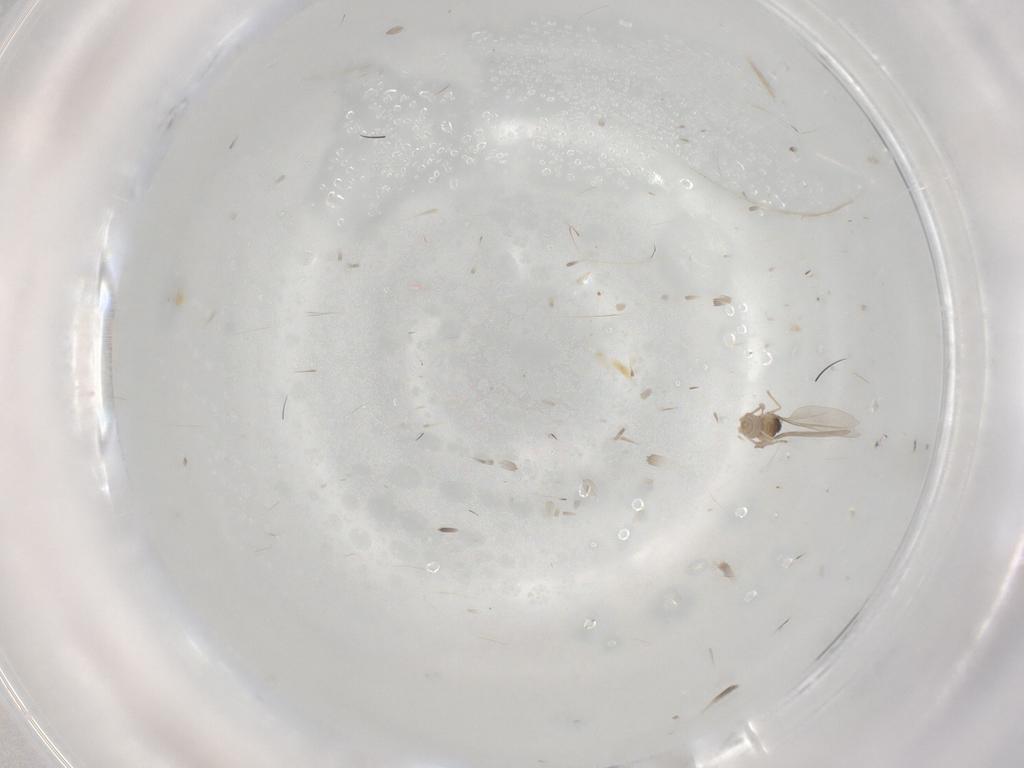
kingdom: Animalia
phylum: Arthropoda
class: Insecta
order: Diptera
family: Cecidomyiidae
